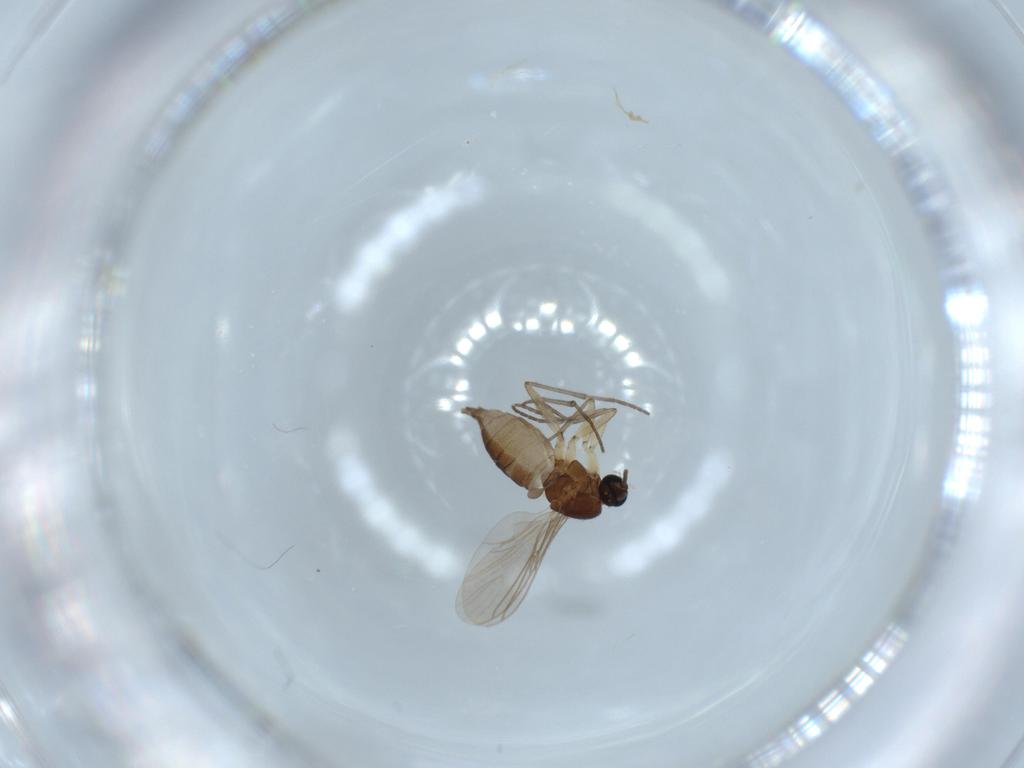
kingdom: Animalia
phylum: Arthropoda
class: Insecta
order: Diptera
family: Sciaridae
